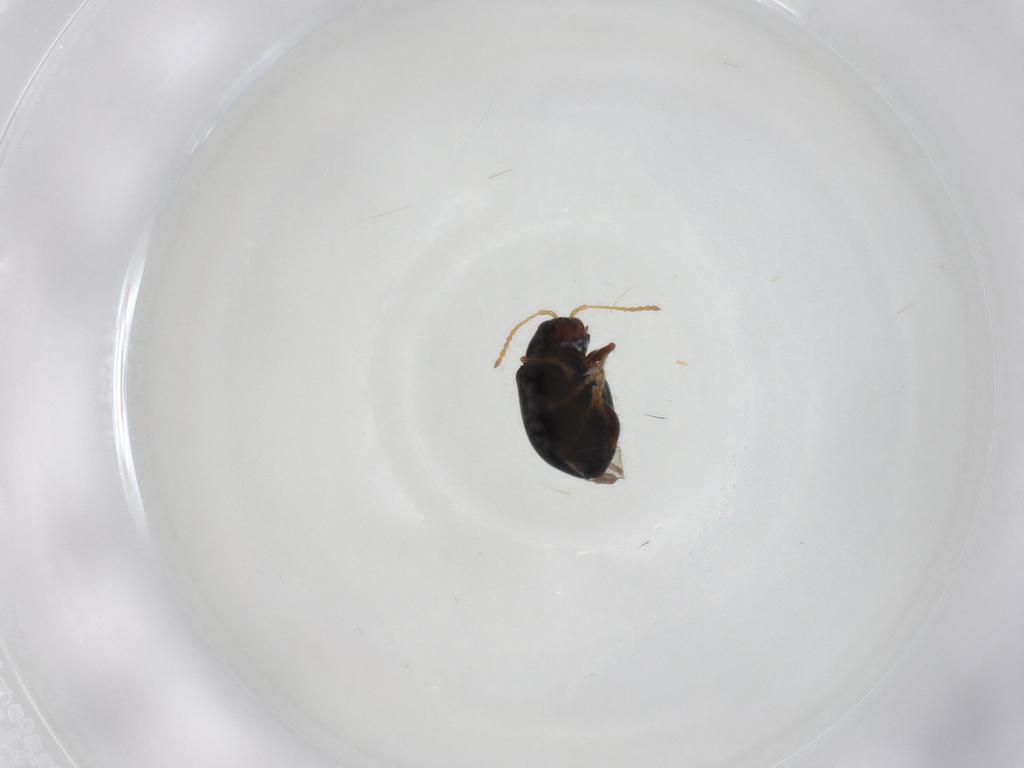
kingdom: Animalia
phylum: Arthropoda
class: Insecta
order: Coleoptera
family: Chrysomelidae
